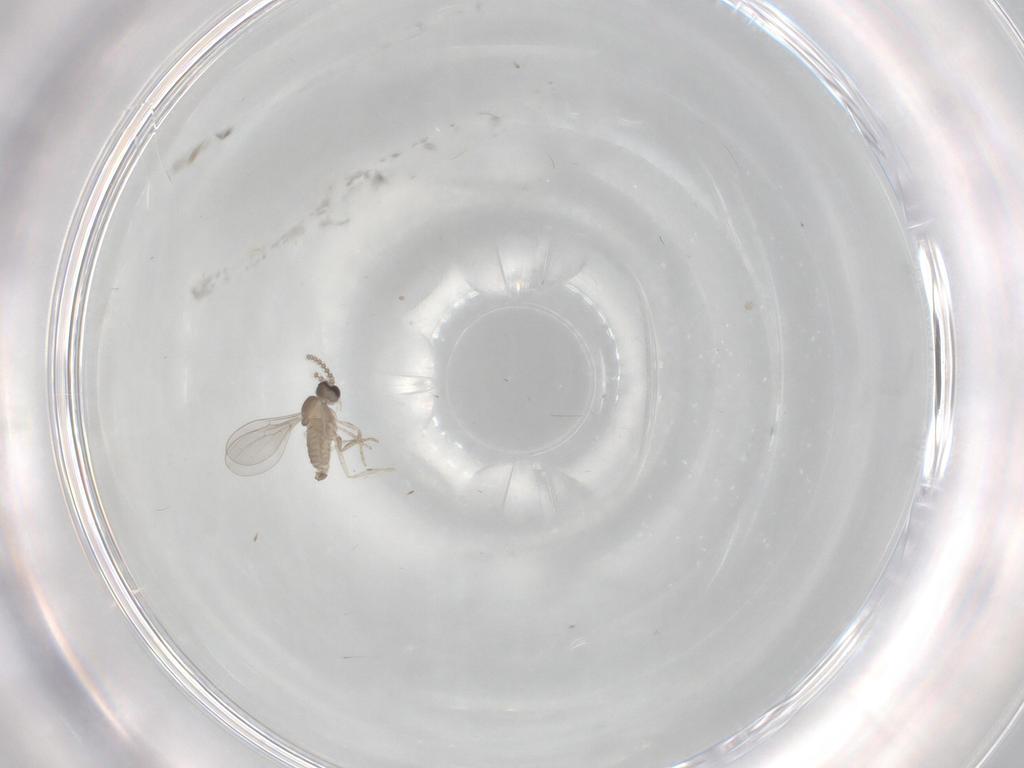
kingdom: Animalia
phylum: Arthropoda
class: Insecta
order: Diptera
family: Cecidomyiidae
